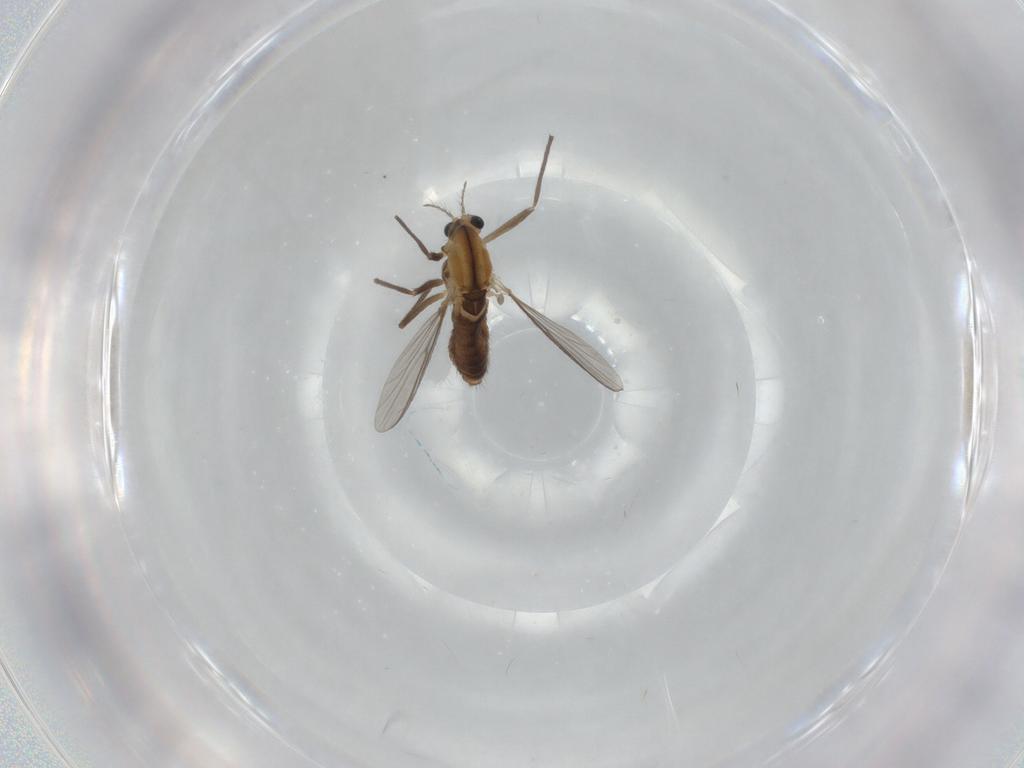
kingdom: Animalia
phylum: Arthropoda
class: Insecta
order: Diptera
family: Chironomidae
